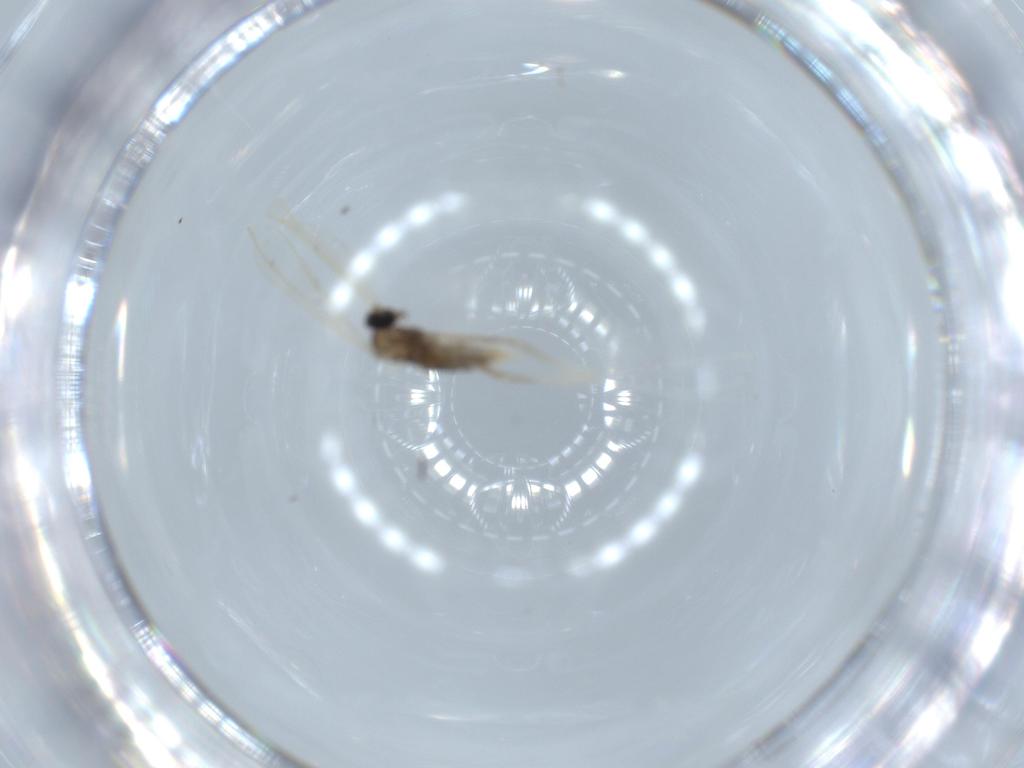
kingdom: Animalia
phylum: Arthropoda
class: Insecta
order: Diptera
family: Cecidomyiidae
